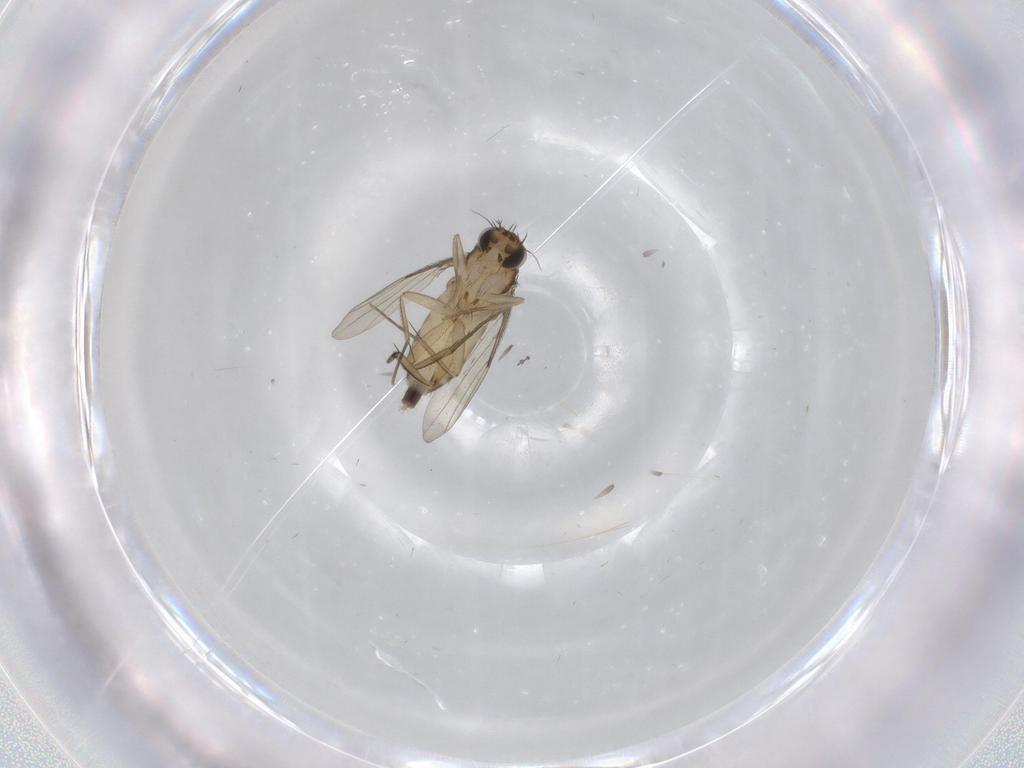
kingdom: Animalia
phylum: Arthropoda
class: Insecta
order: Diptera
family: Phoridae
